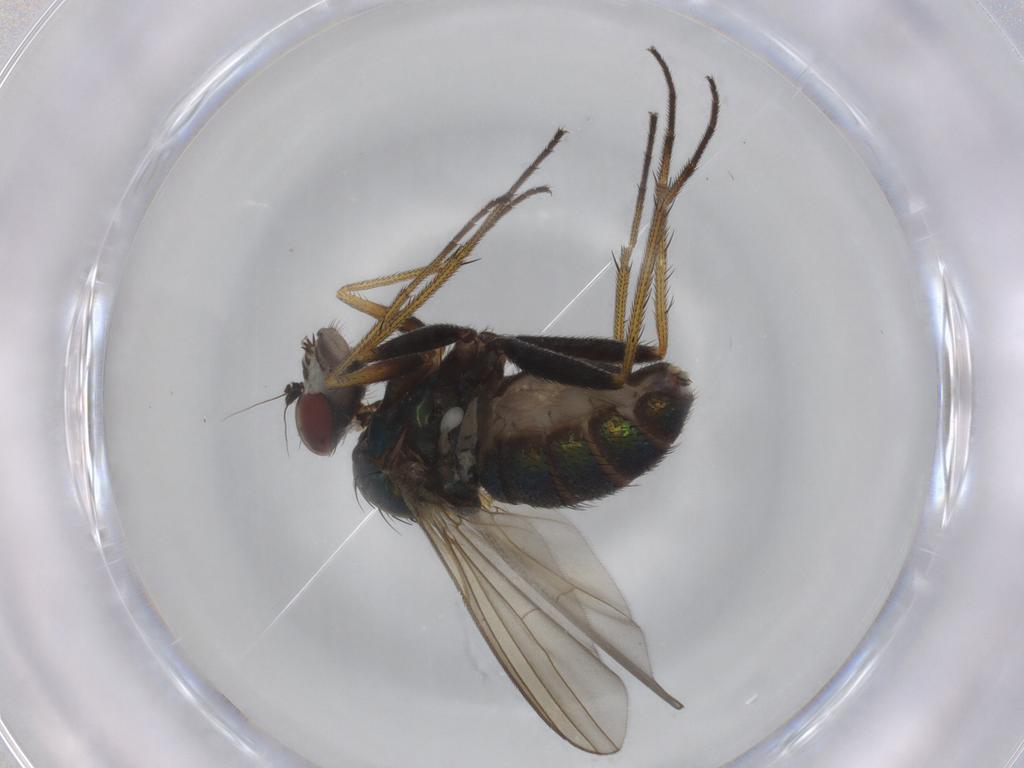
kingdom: Animalia
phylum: Arthropoda
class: Insecta
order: Diptera
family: Dolichopodidae
